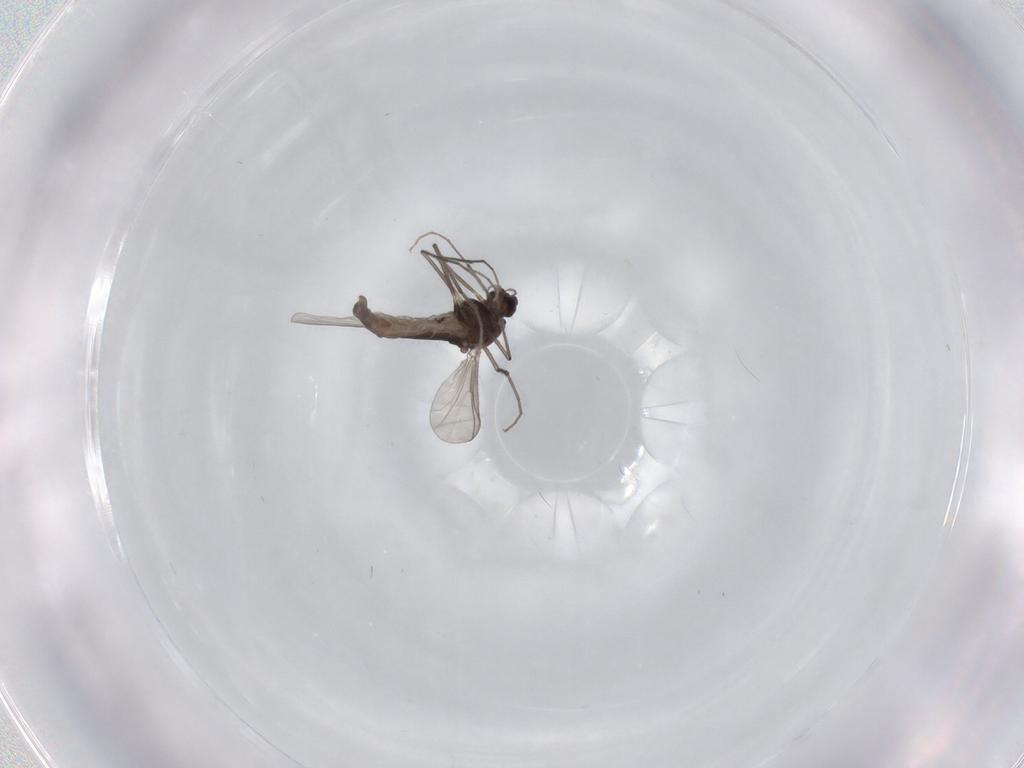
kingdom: Animalia
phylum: Arthropoda
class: Insecta
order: Diptera
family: Chironomidae
